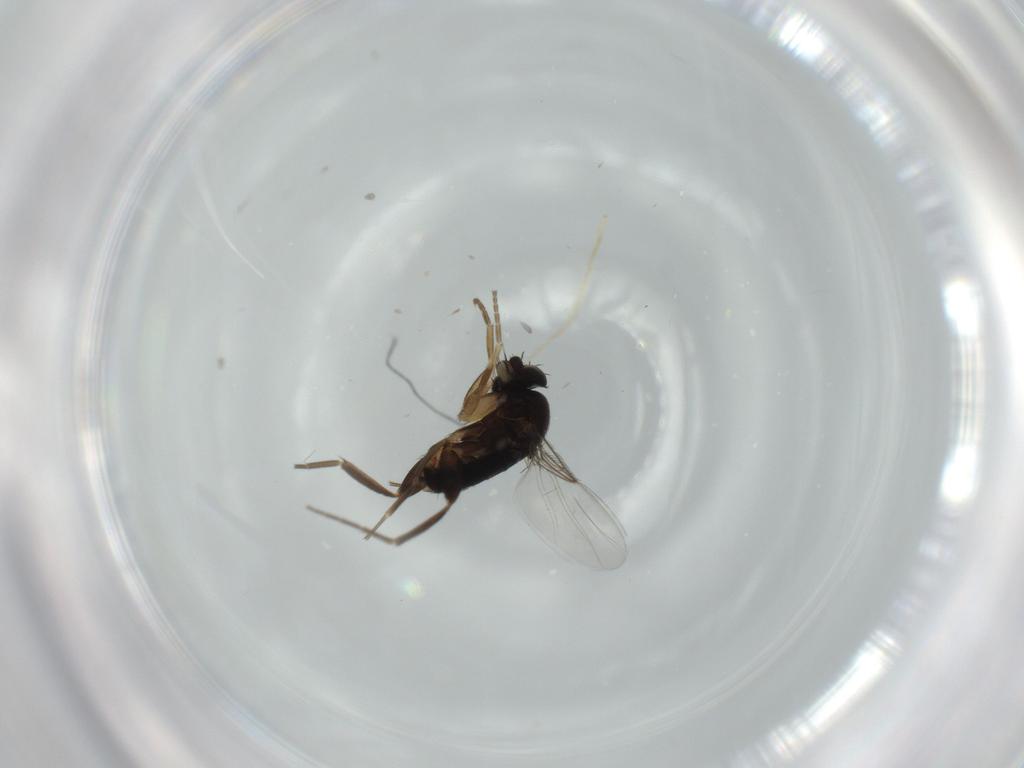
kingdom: Animalia
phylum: Arthropoda
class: Insecta
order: Diptera
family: Phoridae
